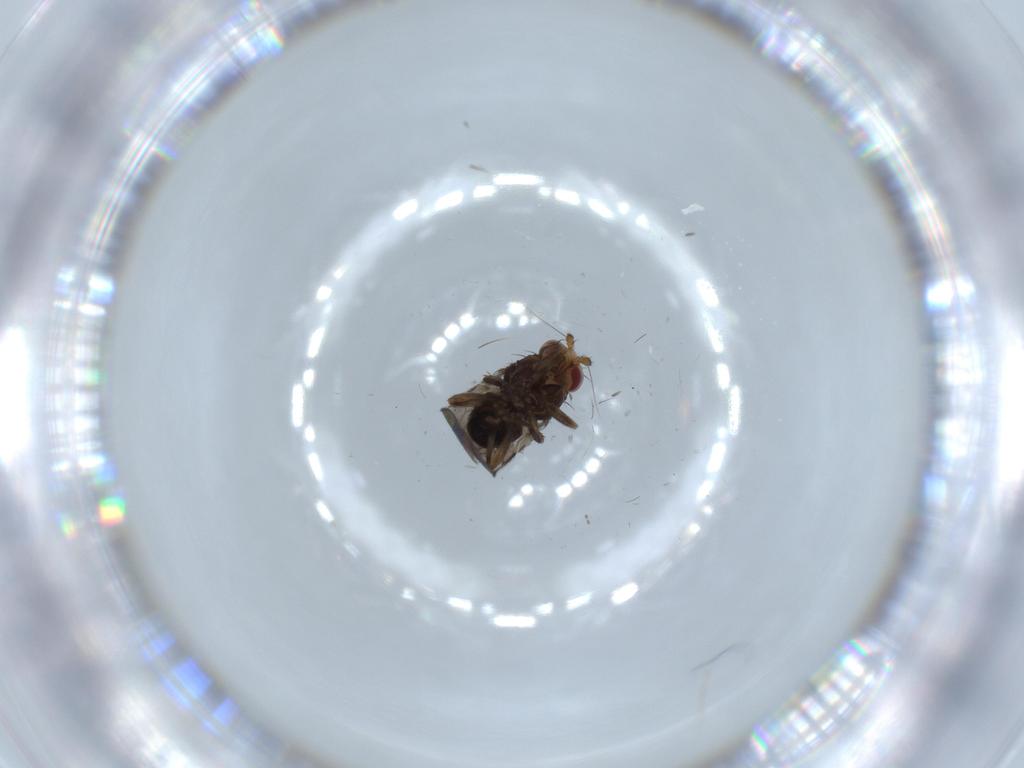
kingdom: Animalia
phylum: Arthropoda
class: Insecta
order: Diptera
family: Cecidomyiidae
